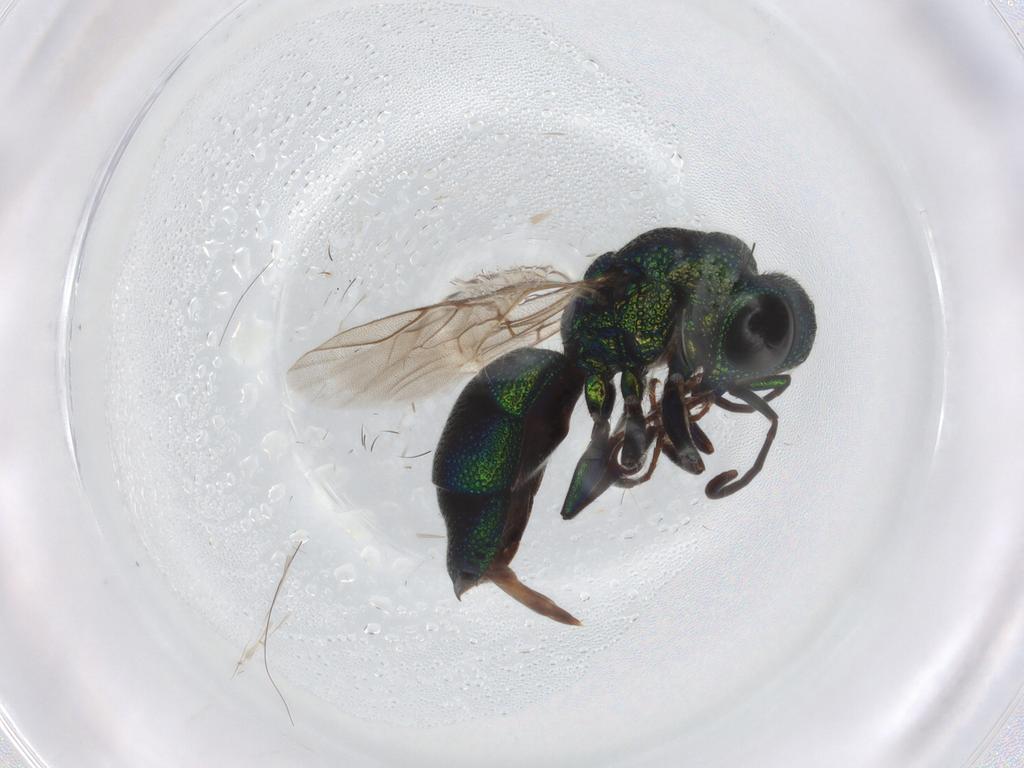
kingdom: Animalia
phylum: Arthropoda
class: Insecta
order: Hymenoptera
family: Chrysididae
